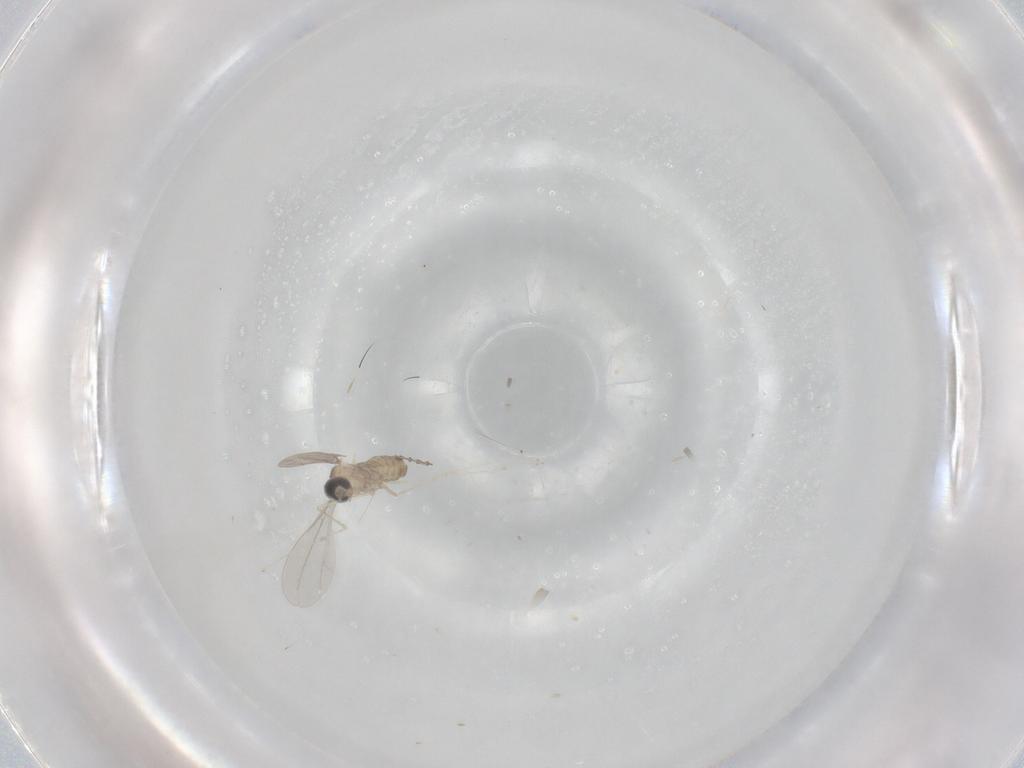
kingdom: Animalia
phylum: Arthropoda
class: Insecta
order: Diptera
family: Cecidomyiidae
